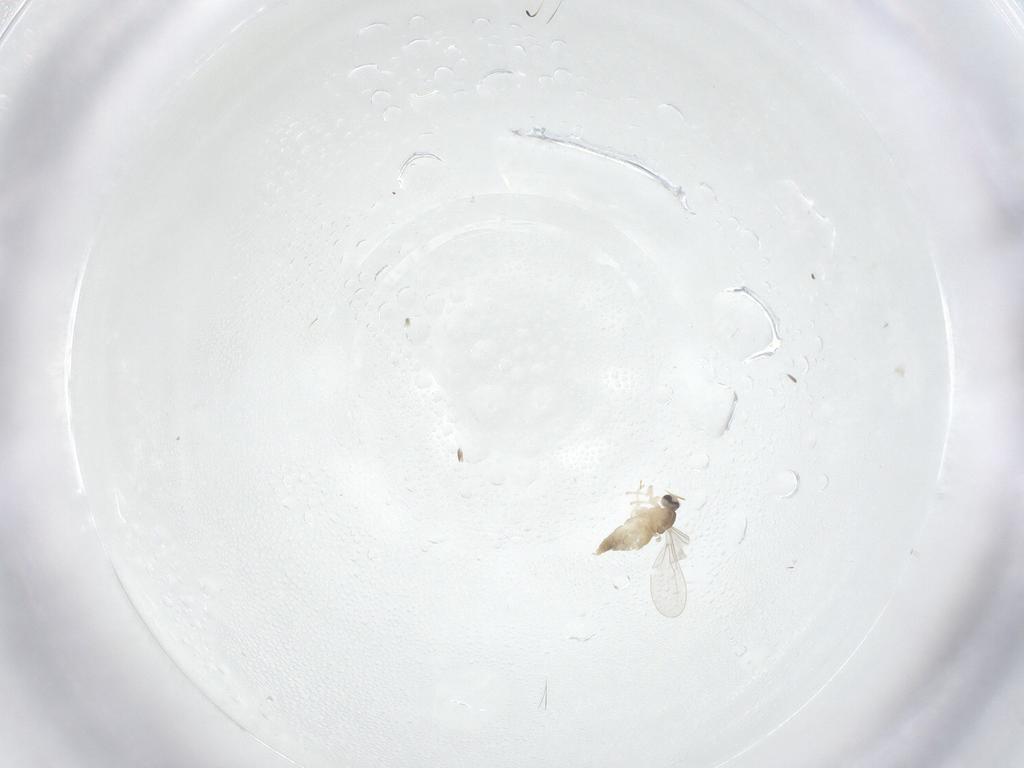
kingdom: Animalia
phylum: Arthropoda
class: Insecta
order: Diptera
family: Cecidomyiidae
